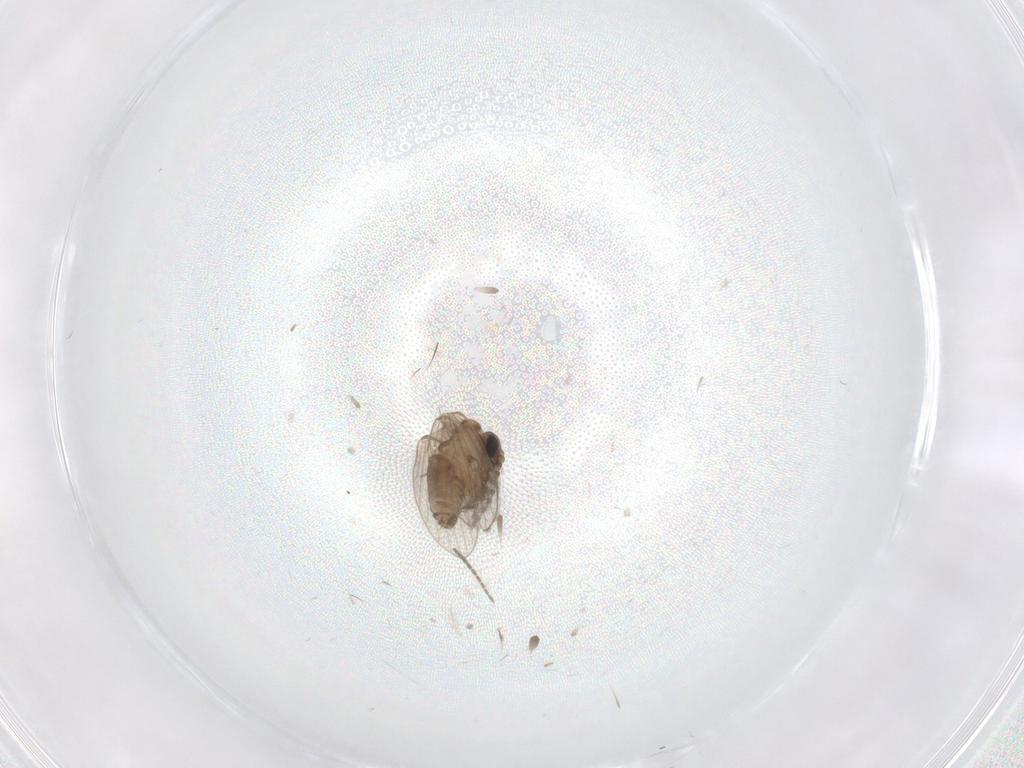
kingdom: Animalia
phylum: Arthropoda
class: Insecta
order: Diptera
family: Sciaridae
